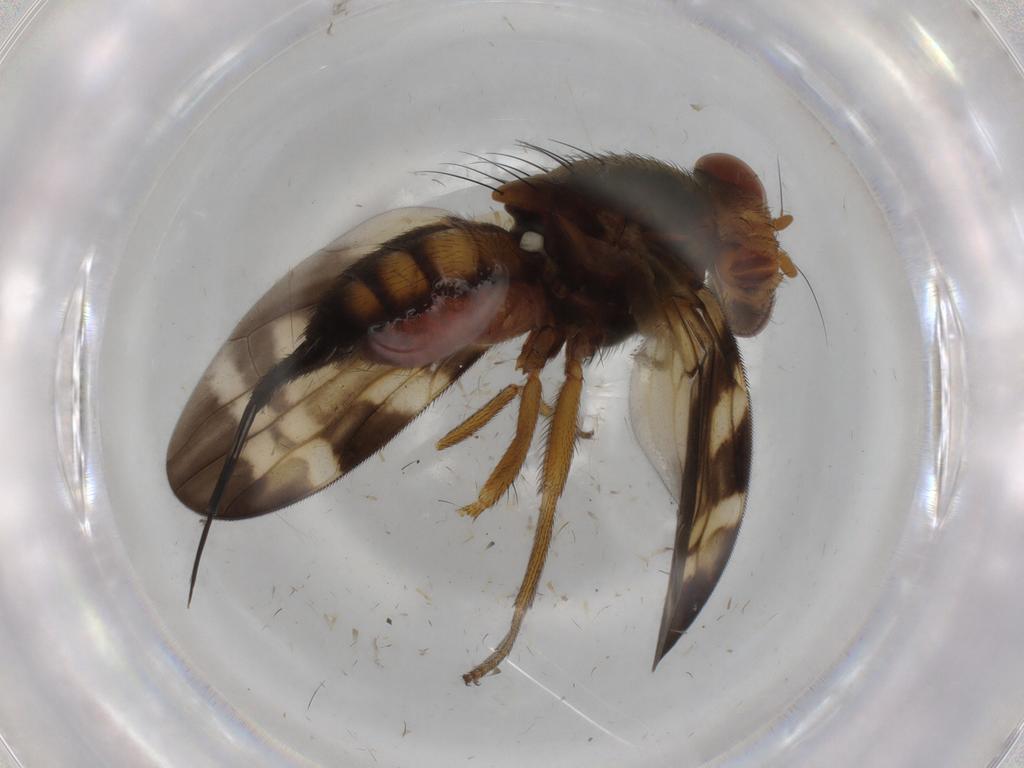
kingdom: Animalia
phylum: Arthropoda
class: Insecta
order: Diptera
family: Ulidiidae
